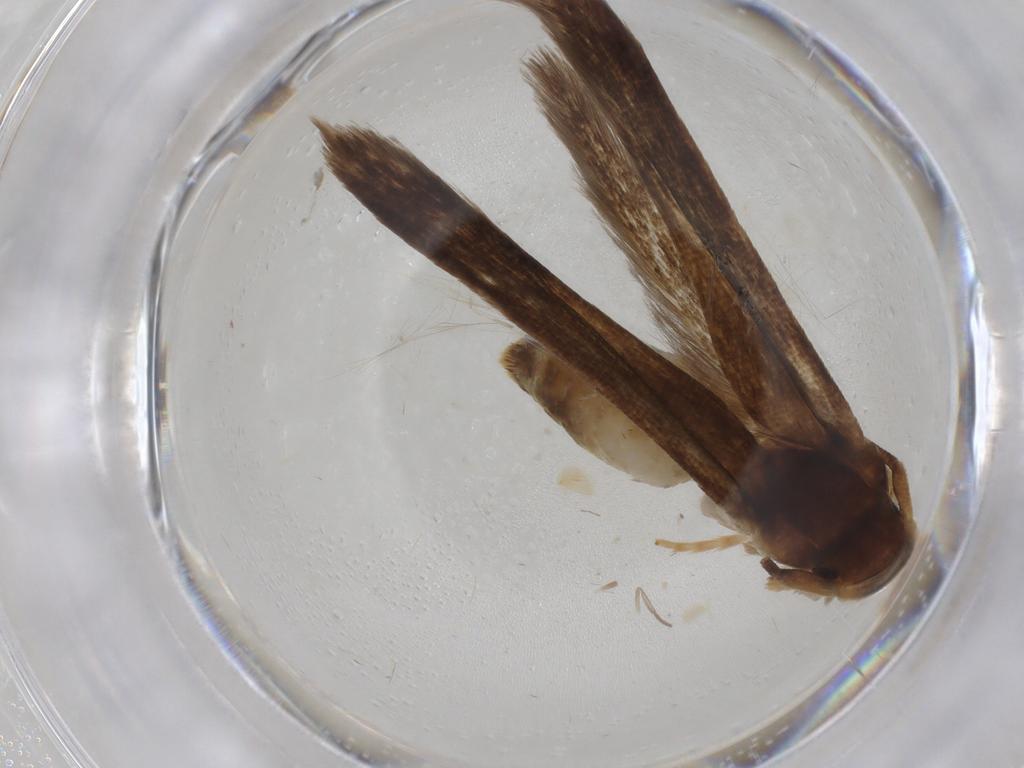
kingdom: Animalia
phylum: Arthropoda
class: Insecta
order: Lepidoptera
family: Tineidae
